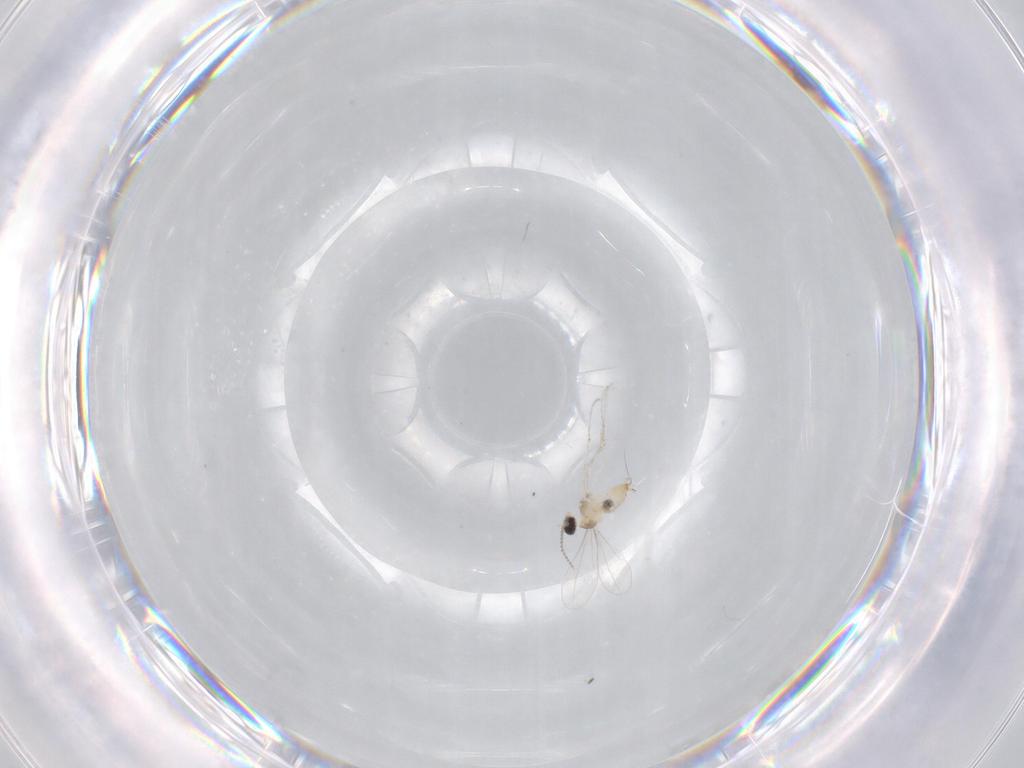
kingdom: Animalia
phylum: Arthropoda
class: Insecta
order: Diptera
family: Cecidomyiidae
